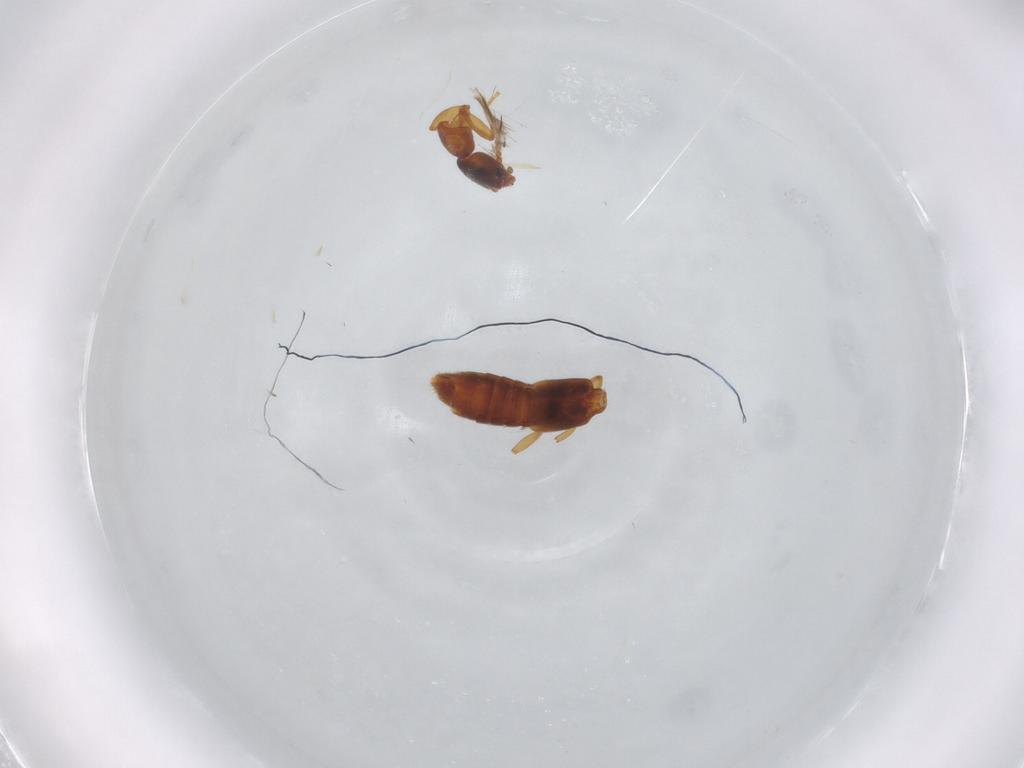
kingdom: Animalia
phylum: Arthropoda
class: Insecta
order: Coleoptera
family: Staphylinidae
